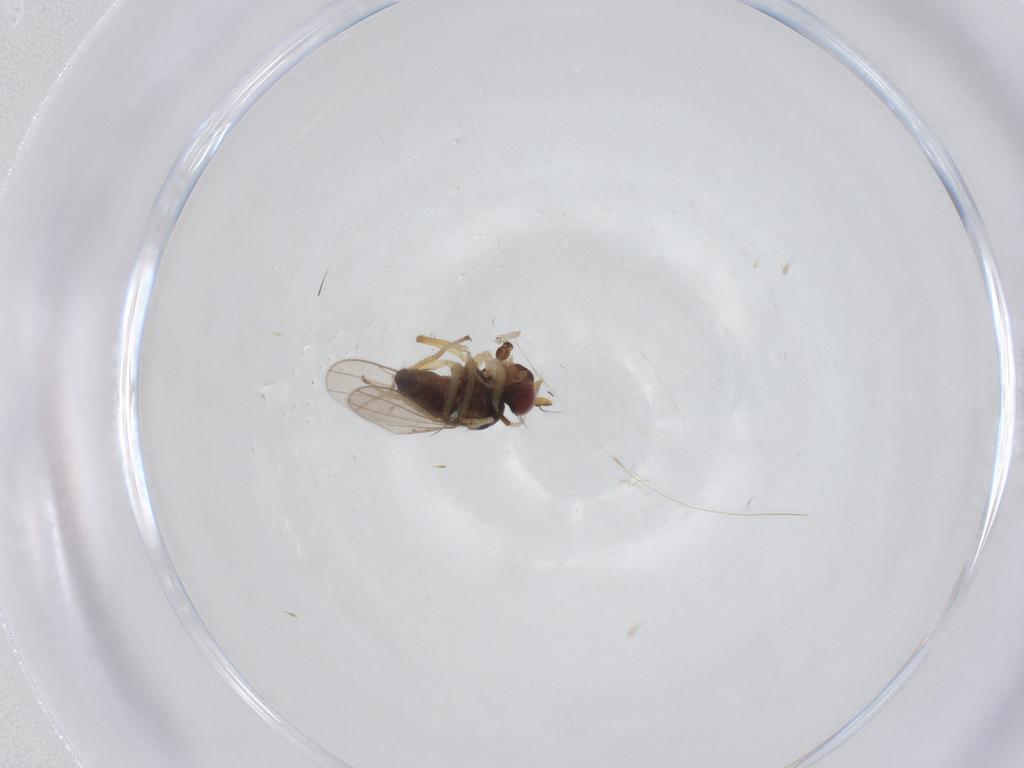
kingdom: Animalia
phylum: Arthropoda
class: Insecta
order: Diptera
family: Ephydridae
